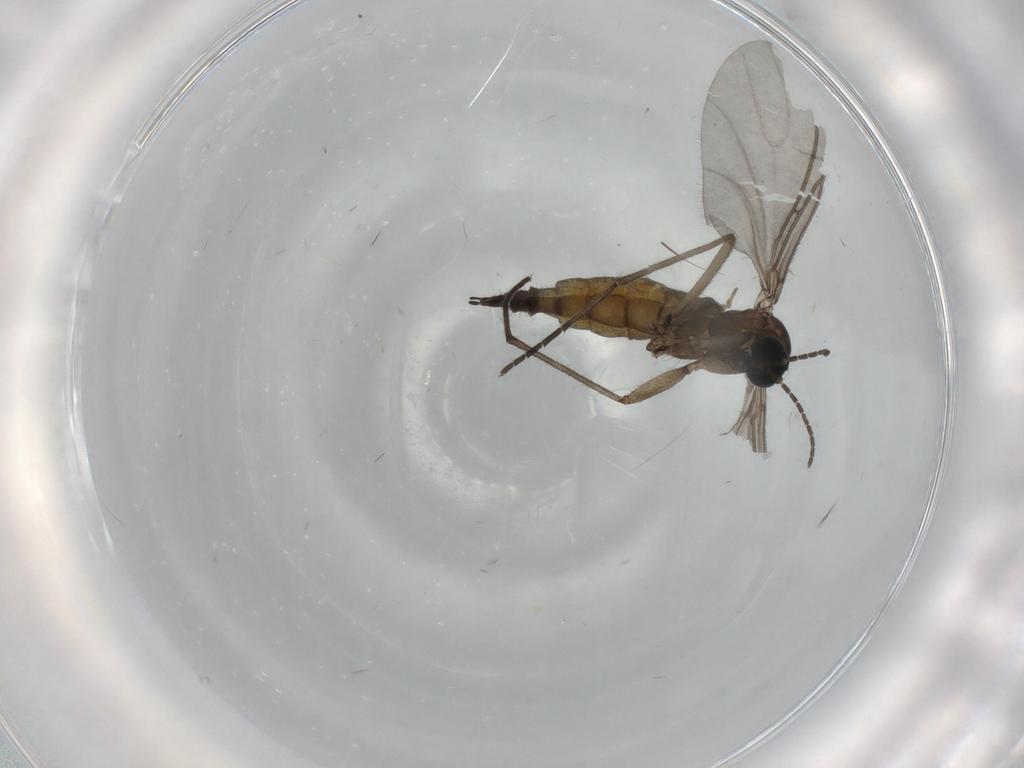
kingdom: Animalia
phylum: Arthropoda
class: Insecta
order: Diptera
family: Sciaridae
